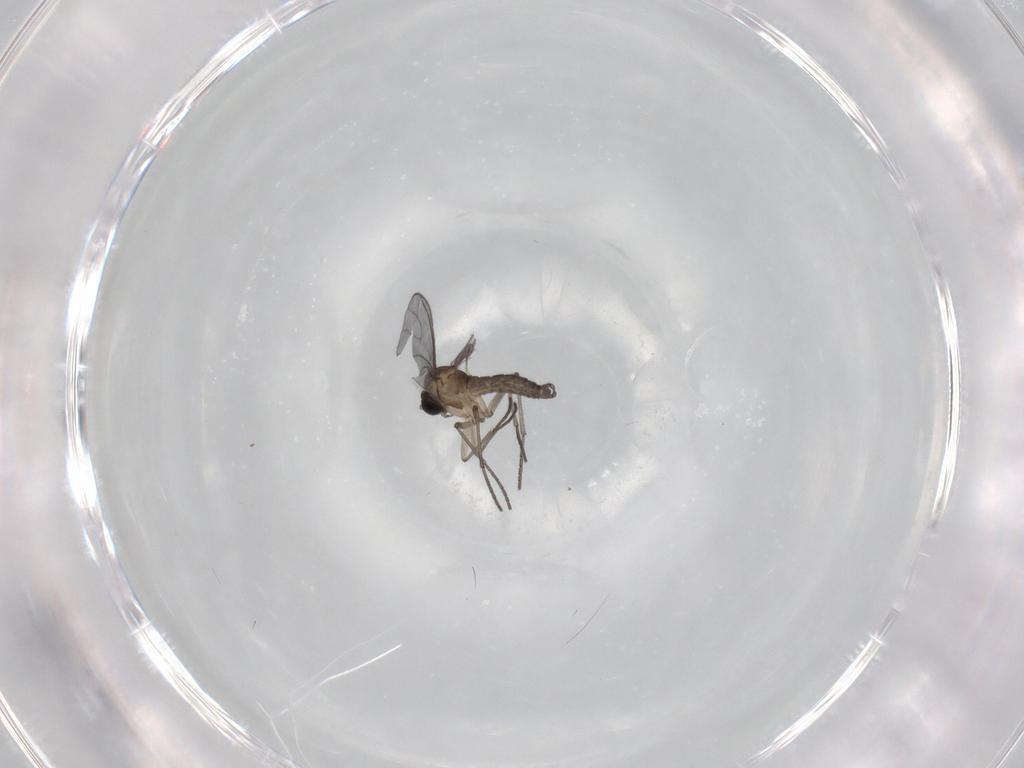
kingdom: Animalia
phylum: Arthropoda
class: Insecta
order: Diptera
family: Sciaridae
